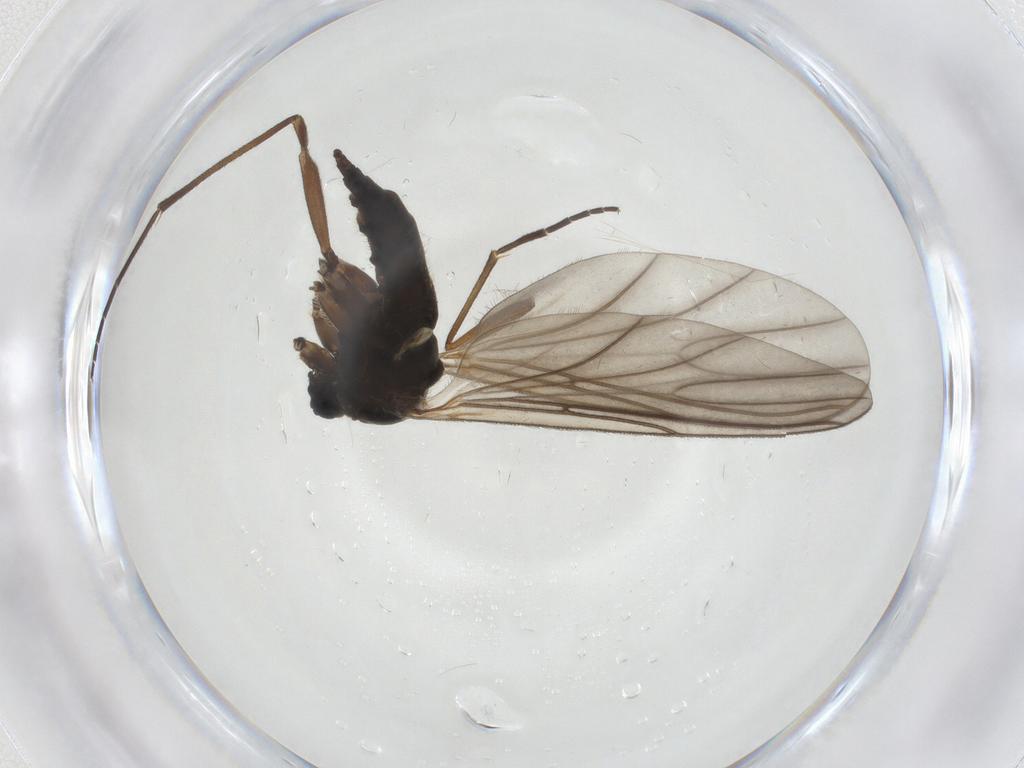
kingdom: Animalia
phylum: Arthropoda
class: Insecta
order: Diptera
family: Sciaridae
